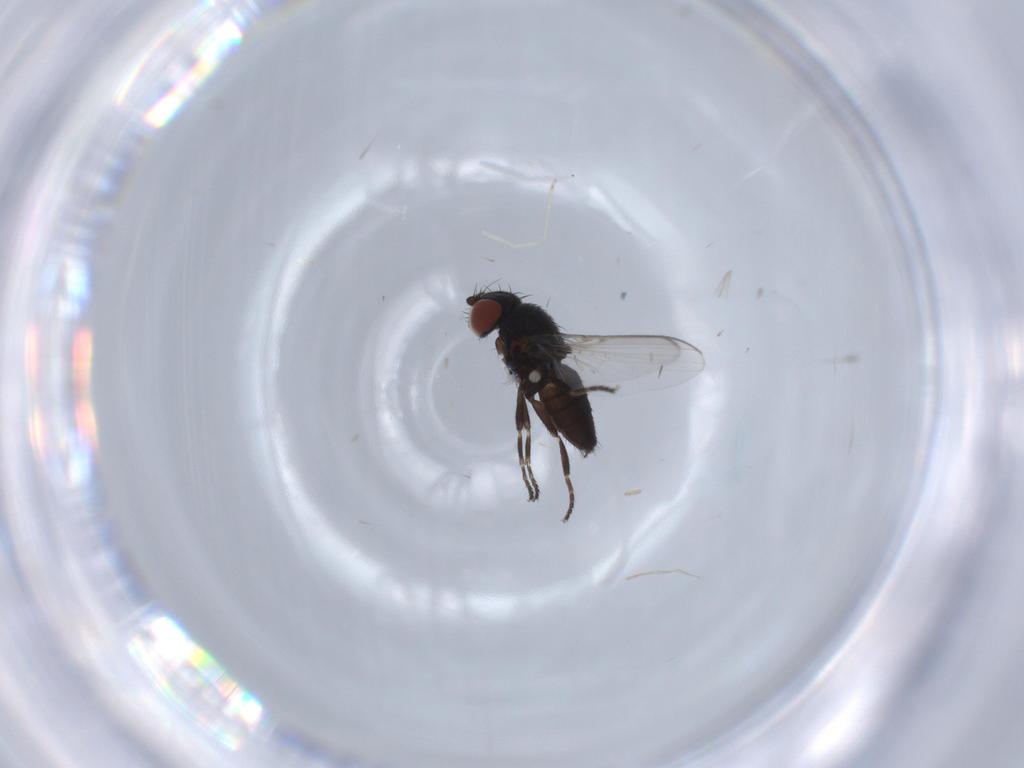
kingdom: Animalia
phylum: Arthropoda
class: Insecta
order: Diptera
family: Milichiidae
